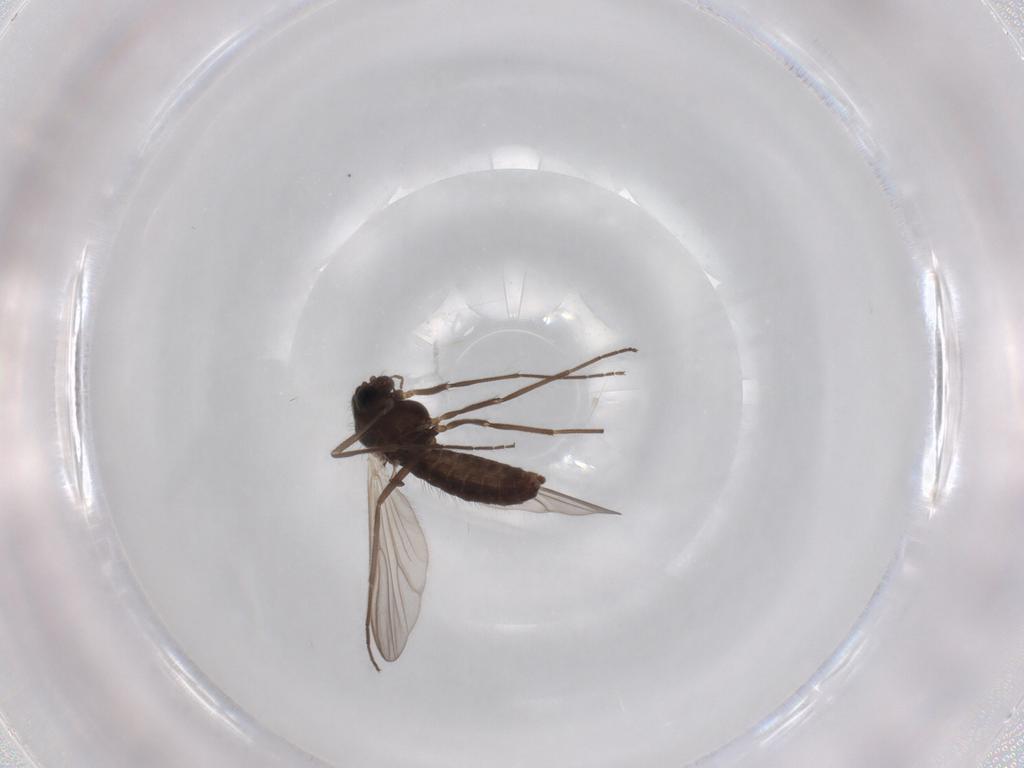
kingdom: Animalia
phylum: Arthropoda
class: Insecta
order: Diptera
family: Chironomidae
